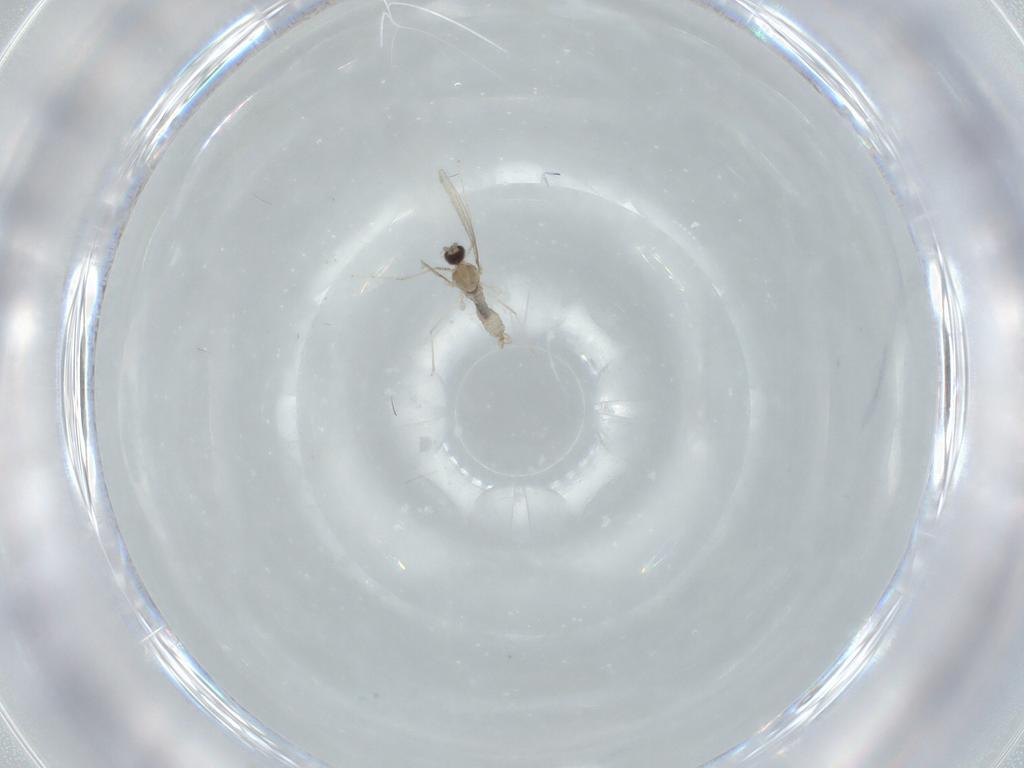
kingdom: Animalia
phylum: Arthropoda
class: Insecta
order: Diptera
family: Cecidomyiidae
